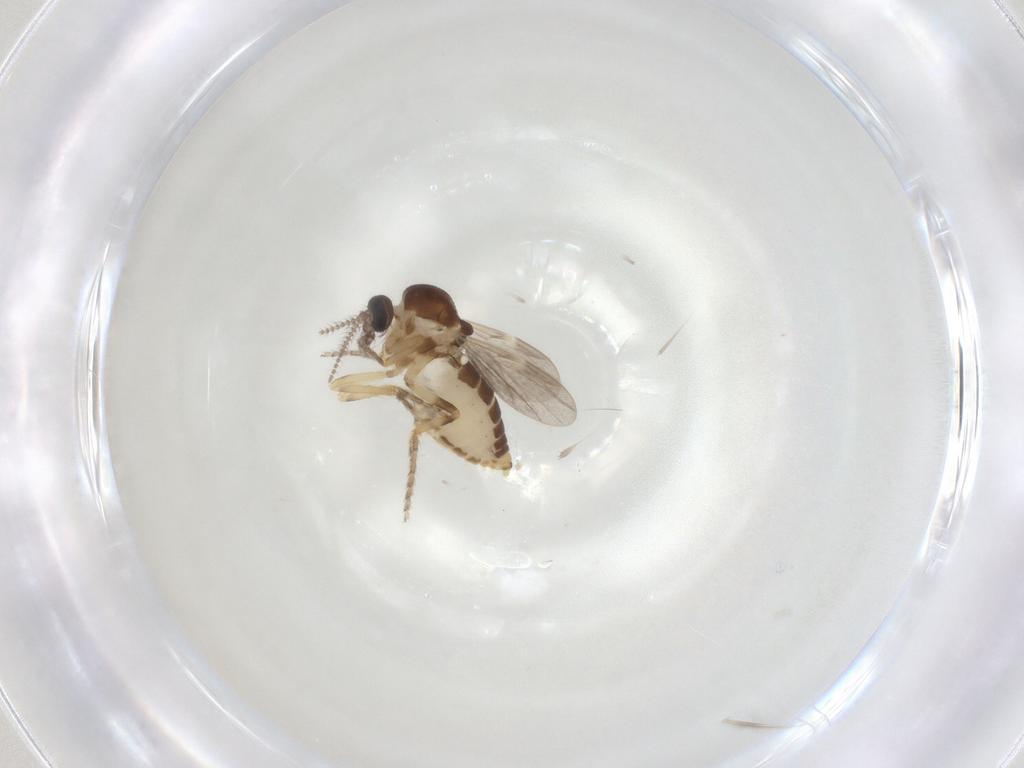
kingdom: Animalia
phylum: Arthropoda
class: Insecta
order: Diptera
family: Ceratopogonidae
